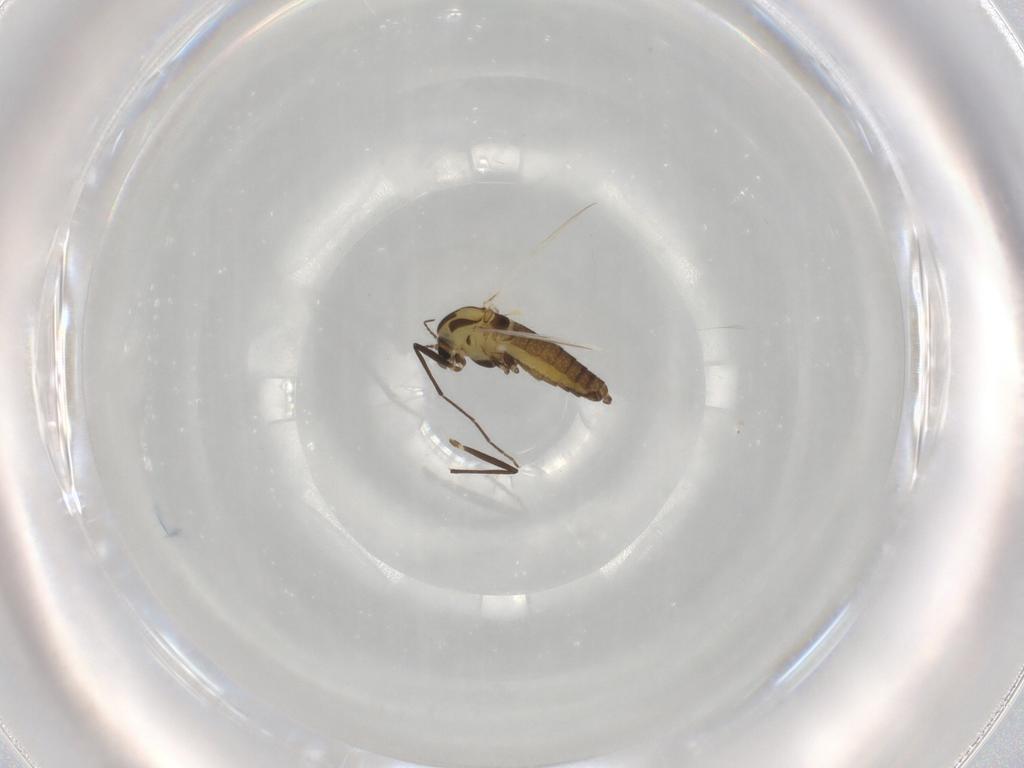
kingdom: Animalia
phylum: Arthropoda
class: Insecta
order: Diptera
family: Chironomidae
